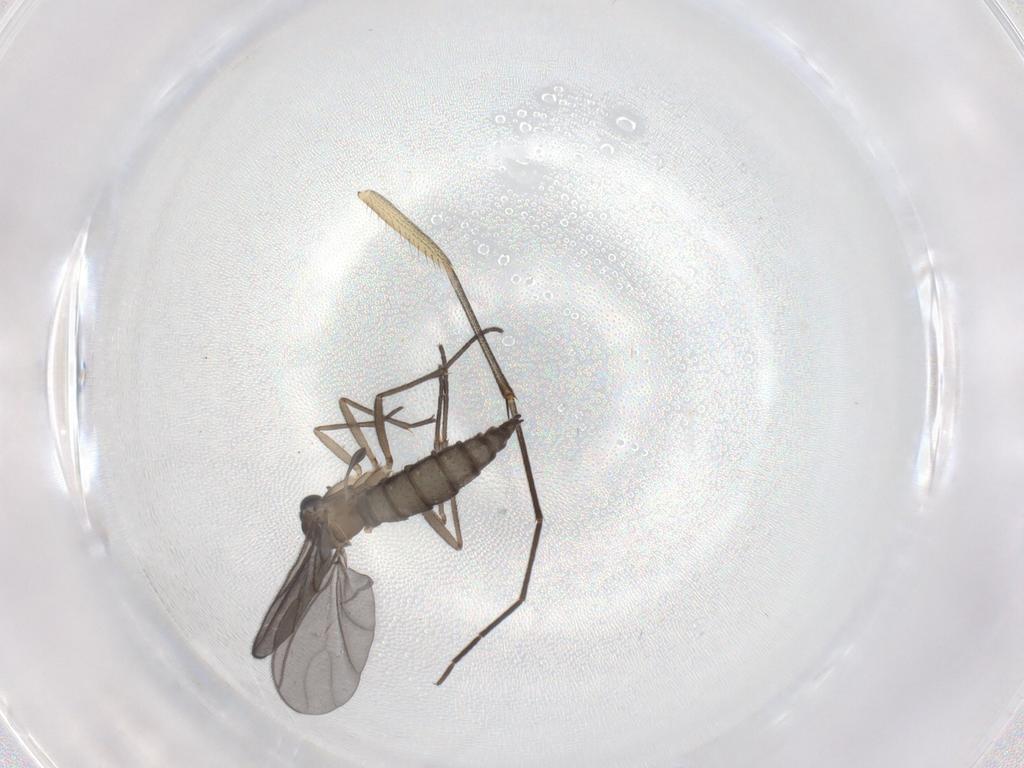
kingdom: Animalia
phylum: Arthropoda
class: Insecta
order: Diptera
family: Sciaridae
